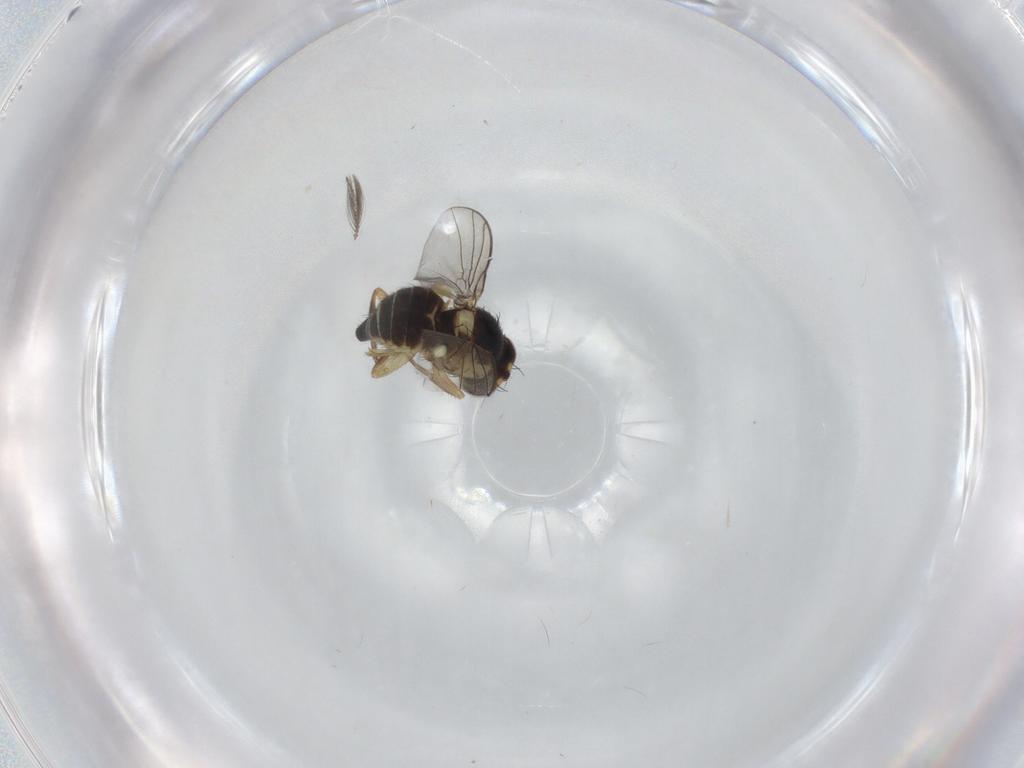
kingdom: Animalia
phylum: Arthropoda
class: Insecta
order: Diptera
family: Agromyzidae
